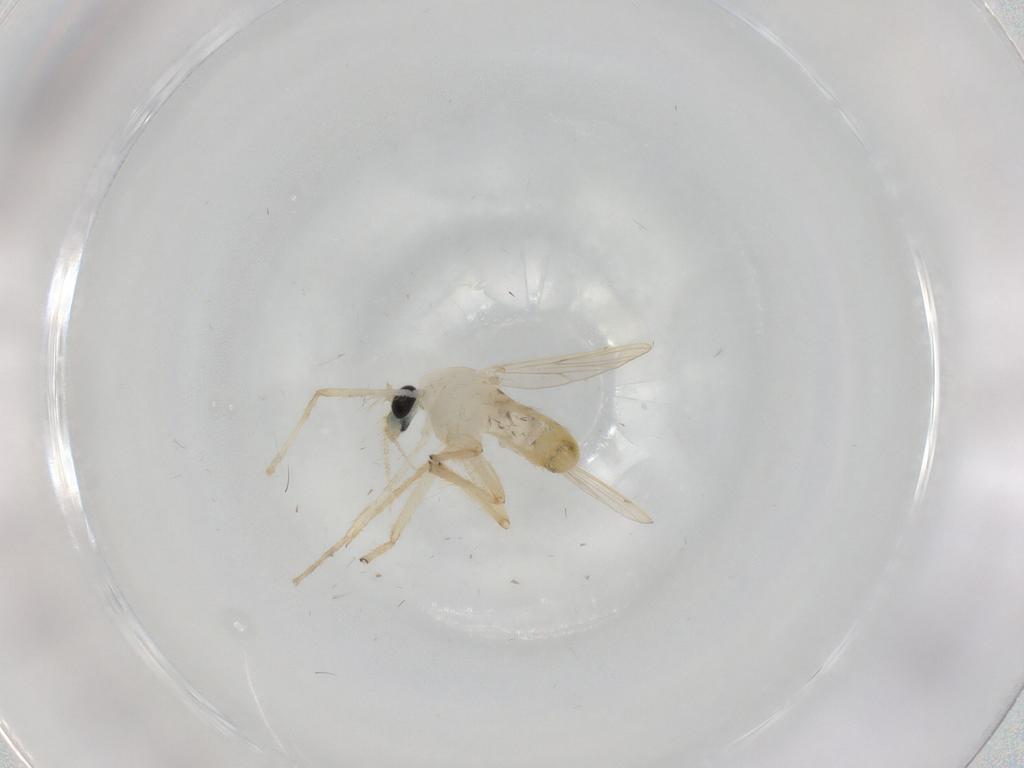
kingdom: Animalia
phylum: Arthropoda
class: Insecta
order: Diptera
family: Chironomidae
